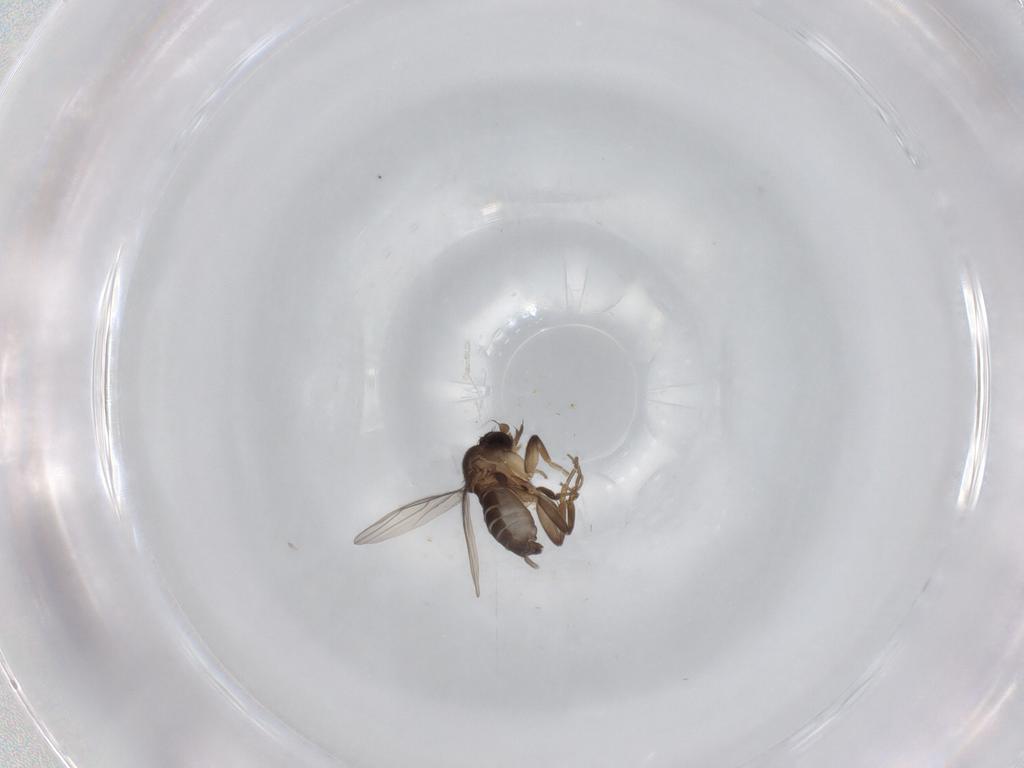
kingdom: Animalia
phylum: Arthropoda
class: Insecta
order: Diptera
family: Phoridae
